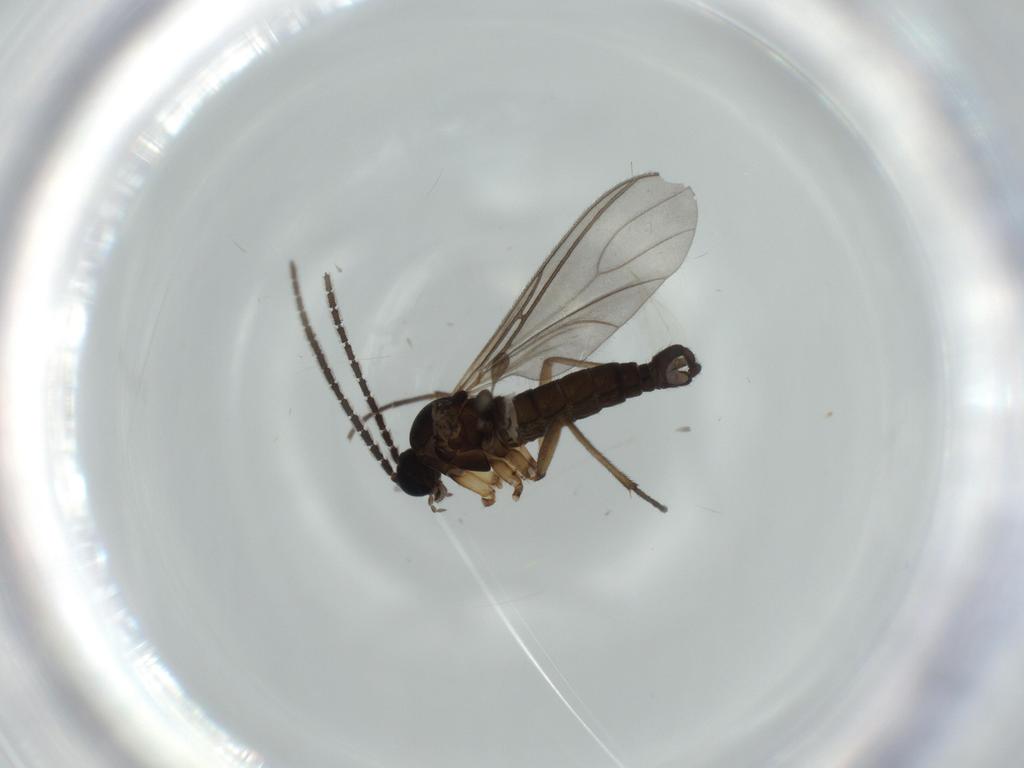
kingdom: Animalia
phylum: Arthropoda
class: Insecta
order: Diptera
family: Sciaridae
